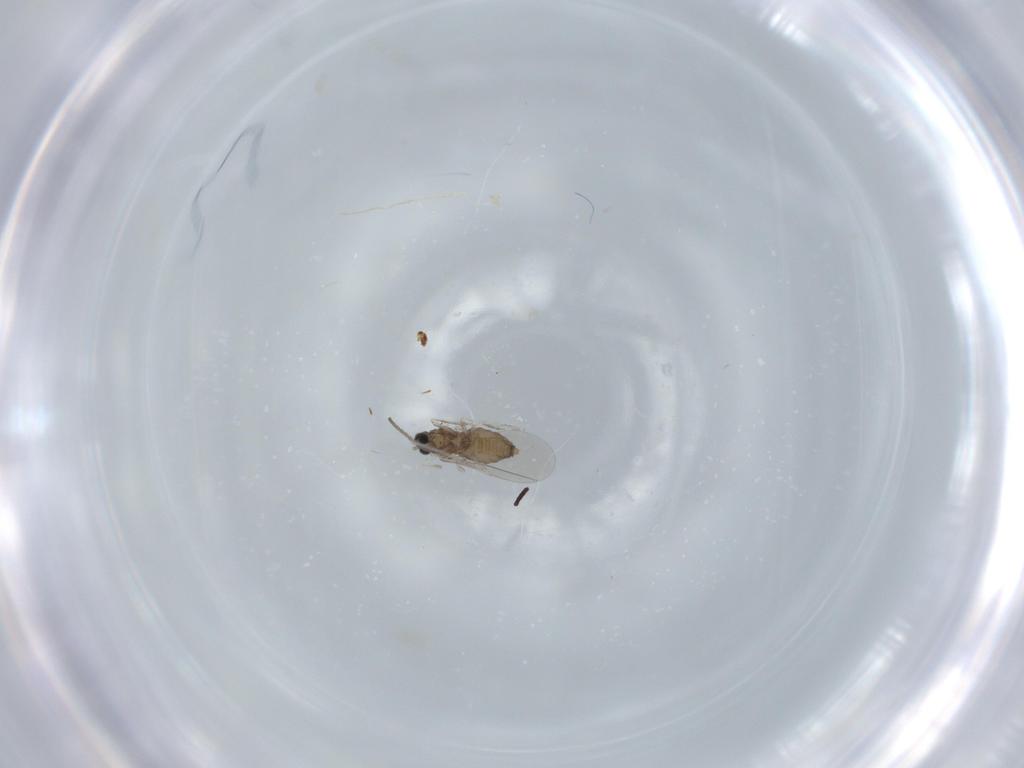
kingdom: Animalia
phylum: Arthropoda
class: Insecta
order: Diptera
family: Cecidomyiidae
